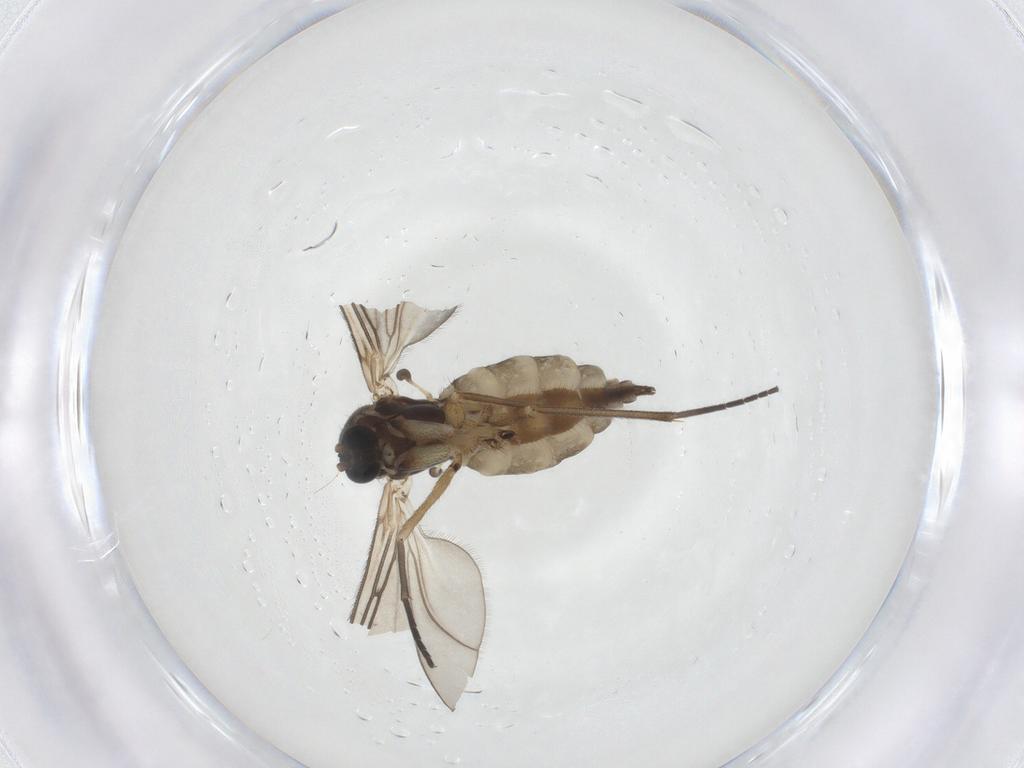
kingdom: Animalia
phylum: Arthropoda
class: Insecta
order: Diptera
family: Sciaridae
